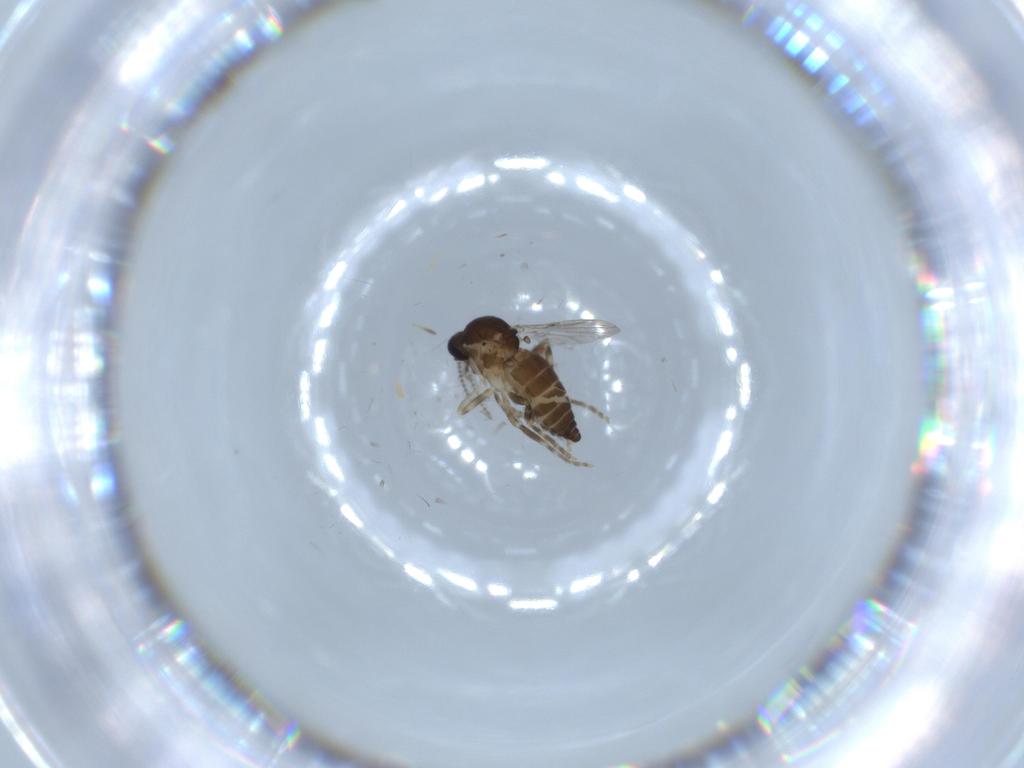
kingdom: Animalia
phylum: Arthropoda
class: Insecta
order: Diptera
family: Ceratopogonidae
